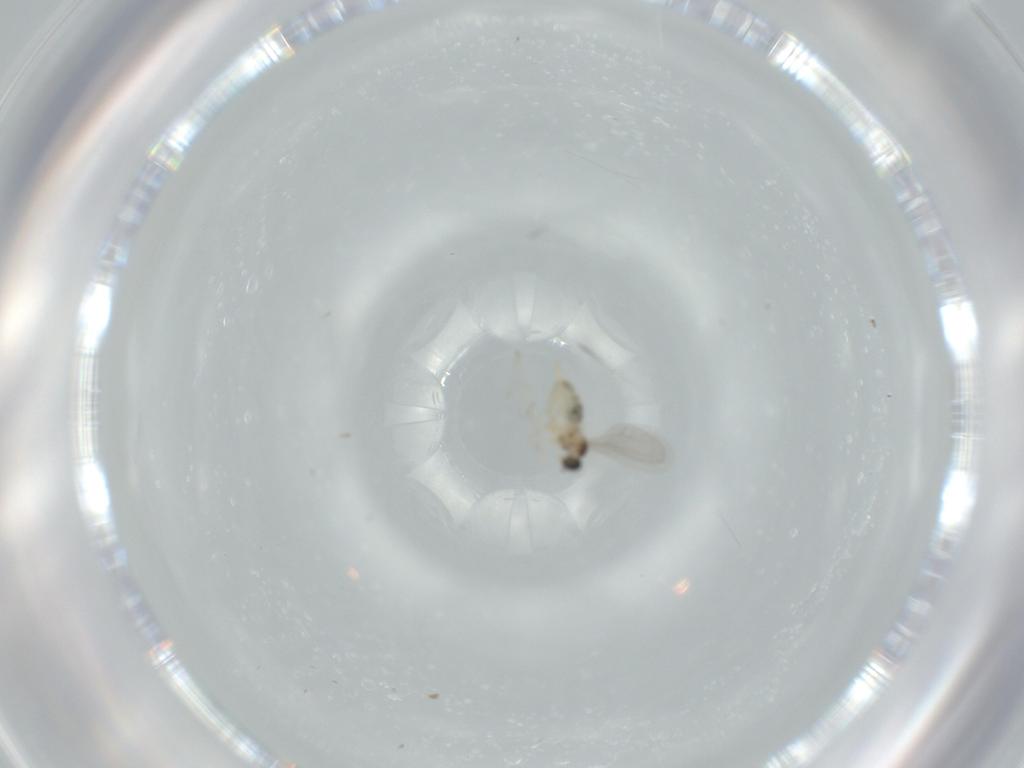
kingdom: Animalia
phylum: Arthropoda
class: Insecta
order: Diptera
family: Cecidomyiidae
